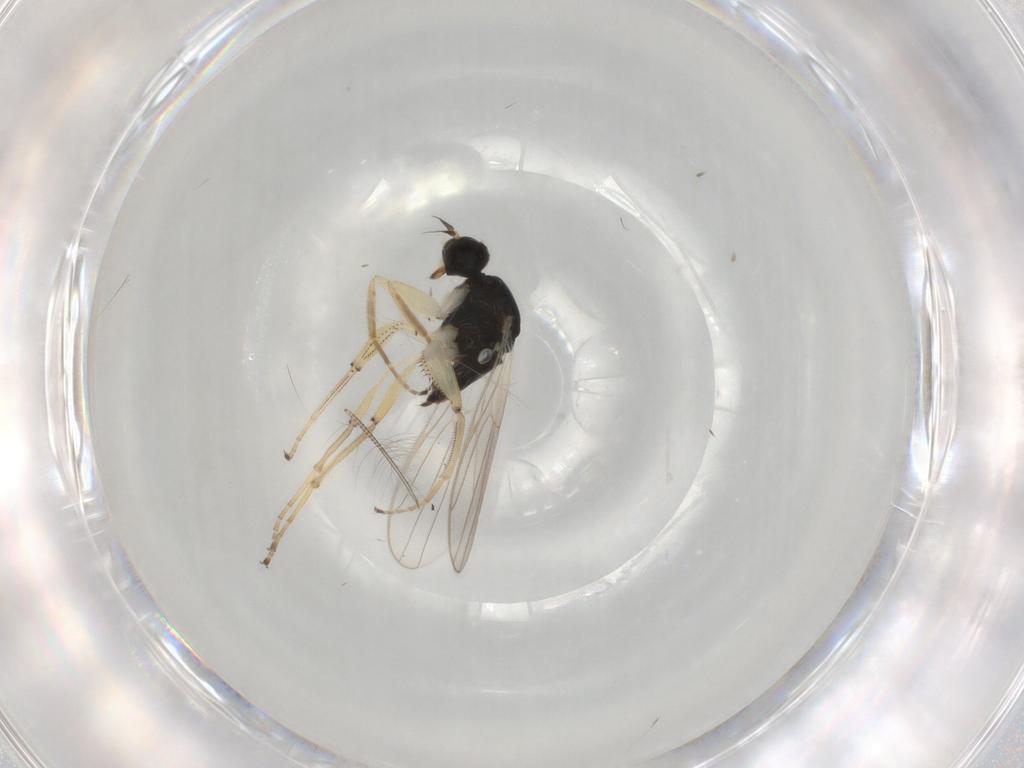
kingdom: Animalia
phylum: Arthropoda
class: Insecta
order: Diptera
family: Hybotidae
